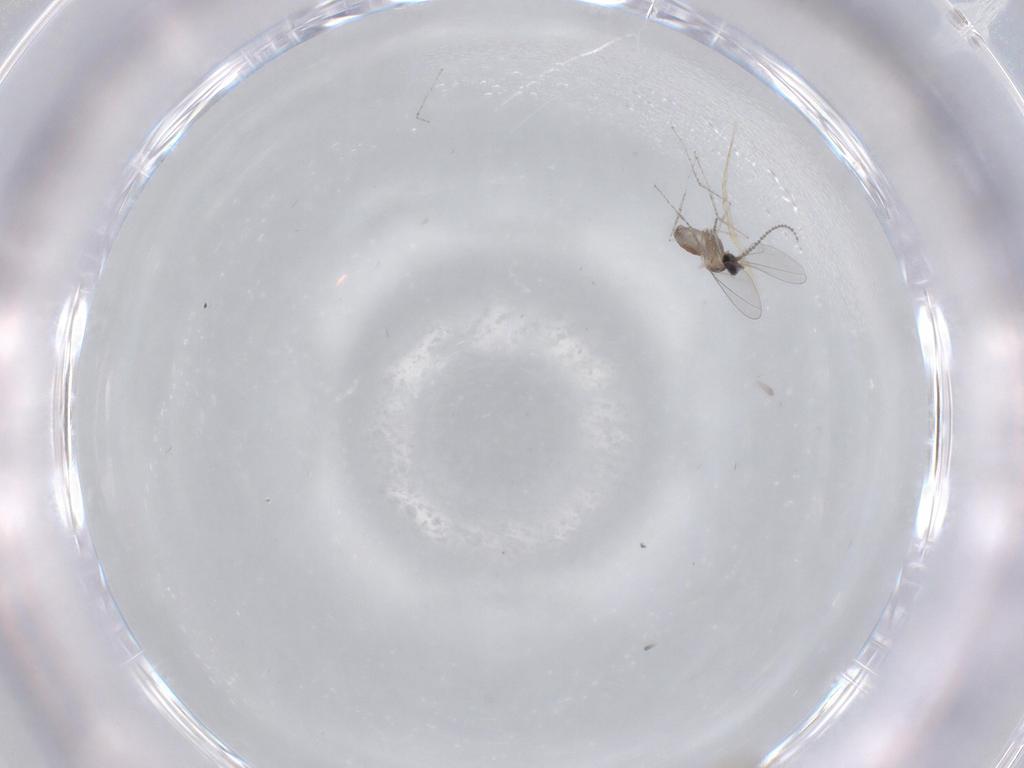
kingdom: Animalia
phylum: Arthropoda
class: Insecta
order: Diptera
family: Cecidomyiidae
